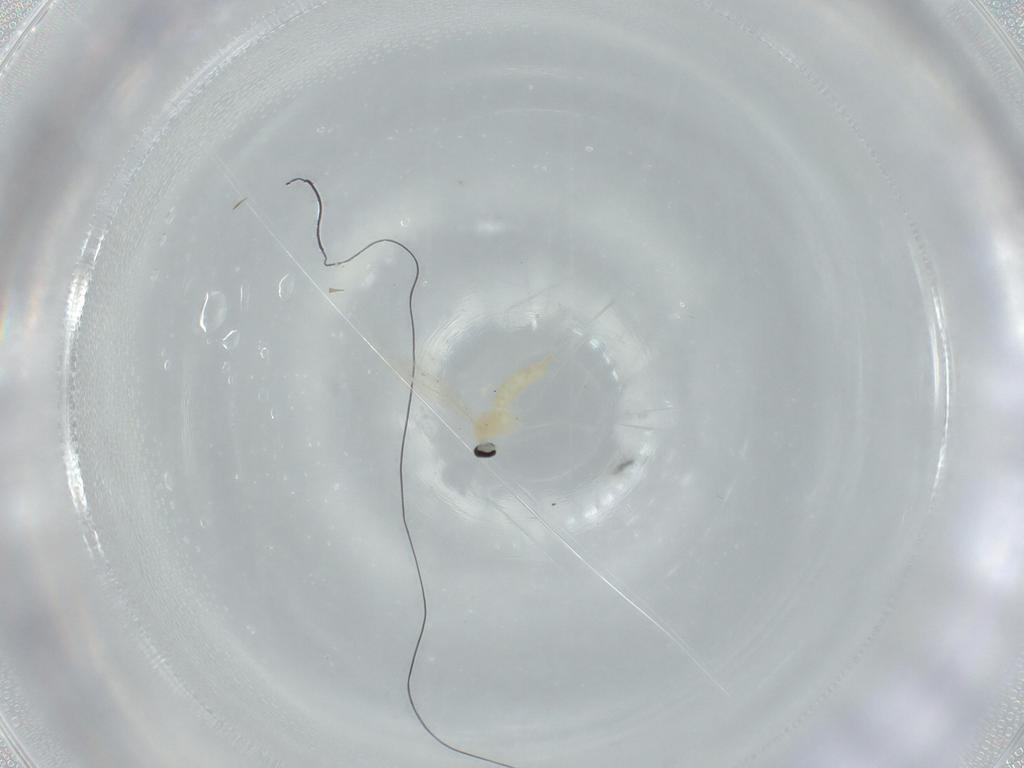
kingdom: Animalia
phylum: Arthropoda
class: Insecta
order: Diptera
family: Cecidomyiidae
